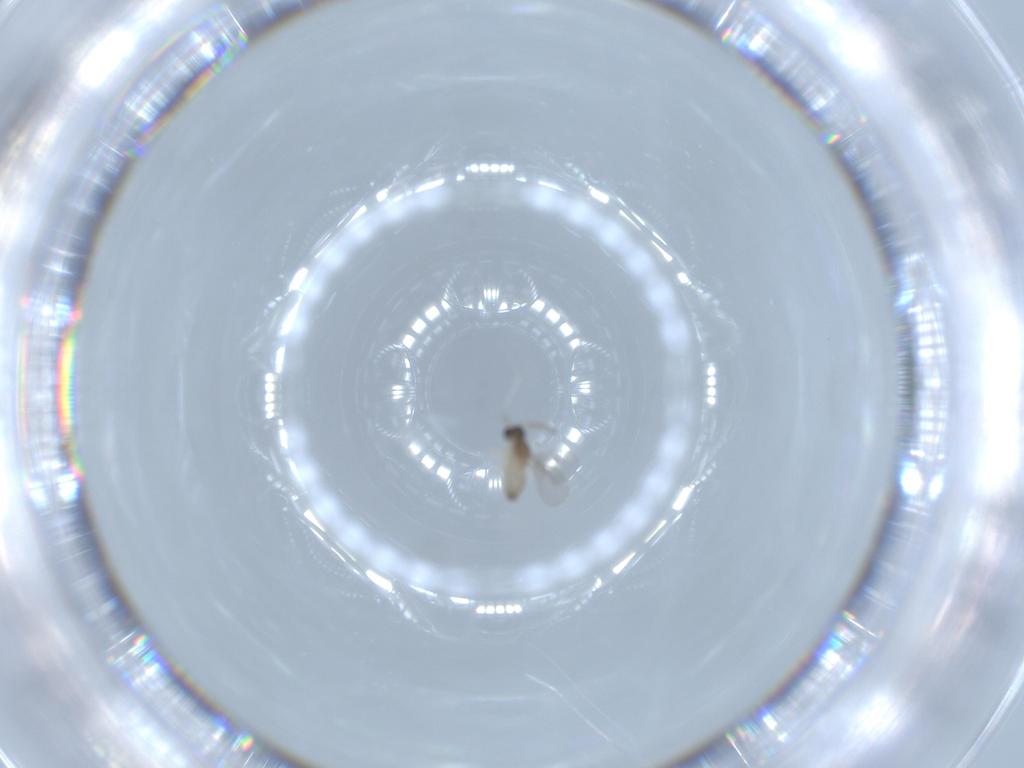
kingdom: Animalia
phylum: Arthropoda
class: Insecta
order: Diptera
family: Cecidomyiidae
